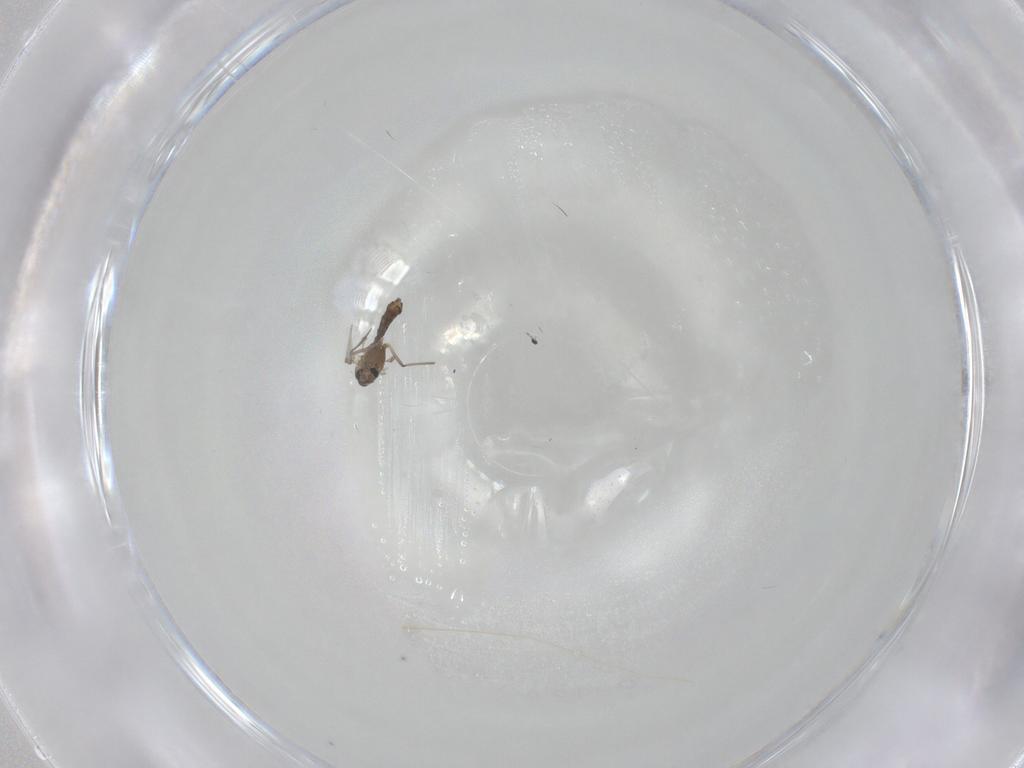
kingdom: Animalia
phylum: Arthropoda
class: Insecta
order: Diptera
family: Chironomidae
